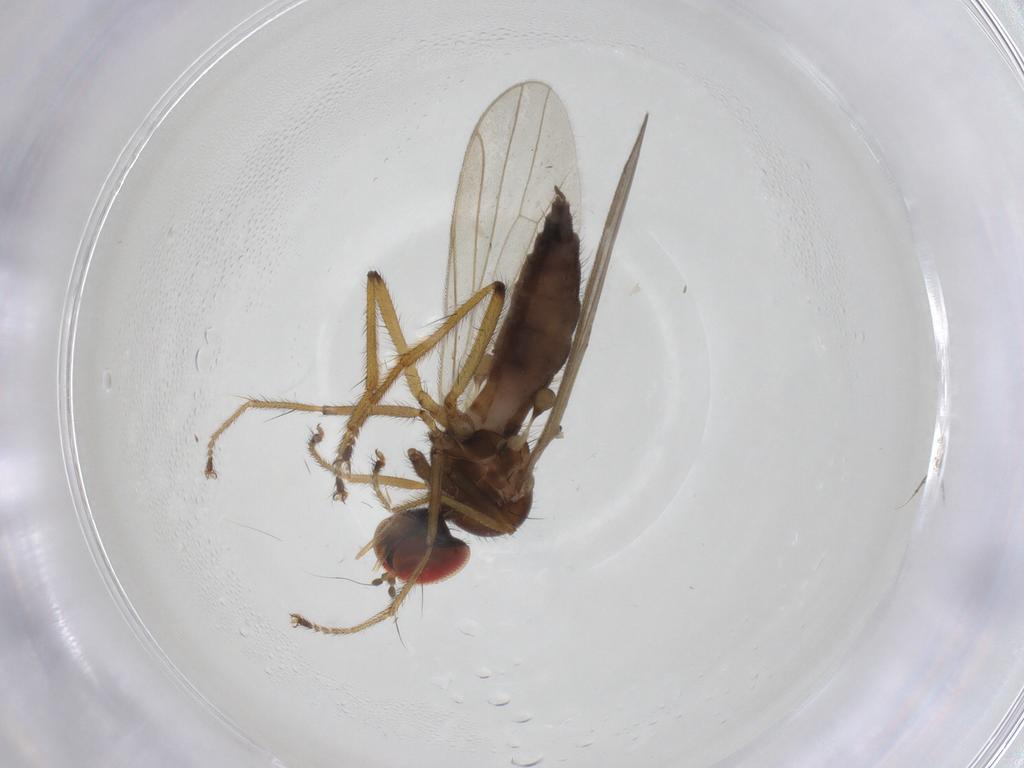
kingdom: Animalia
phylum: Arthropoda
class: Insecta
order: Diptera
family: Hybotidae
